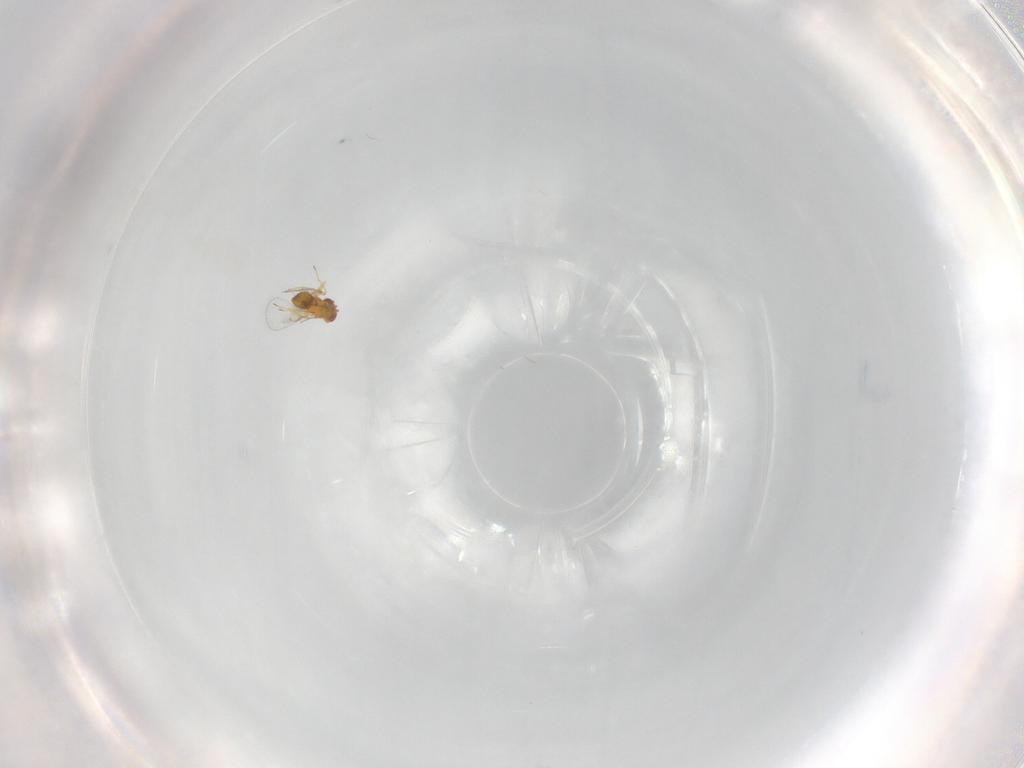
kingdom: Animalia
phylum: Arthropoda
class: Insecta
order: Hymenoptera
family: Trichogrammatidae
